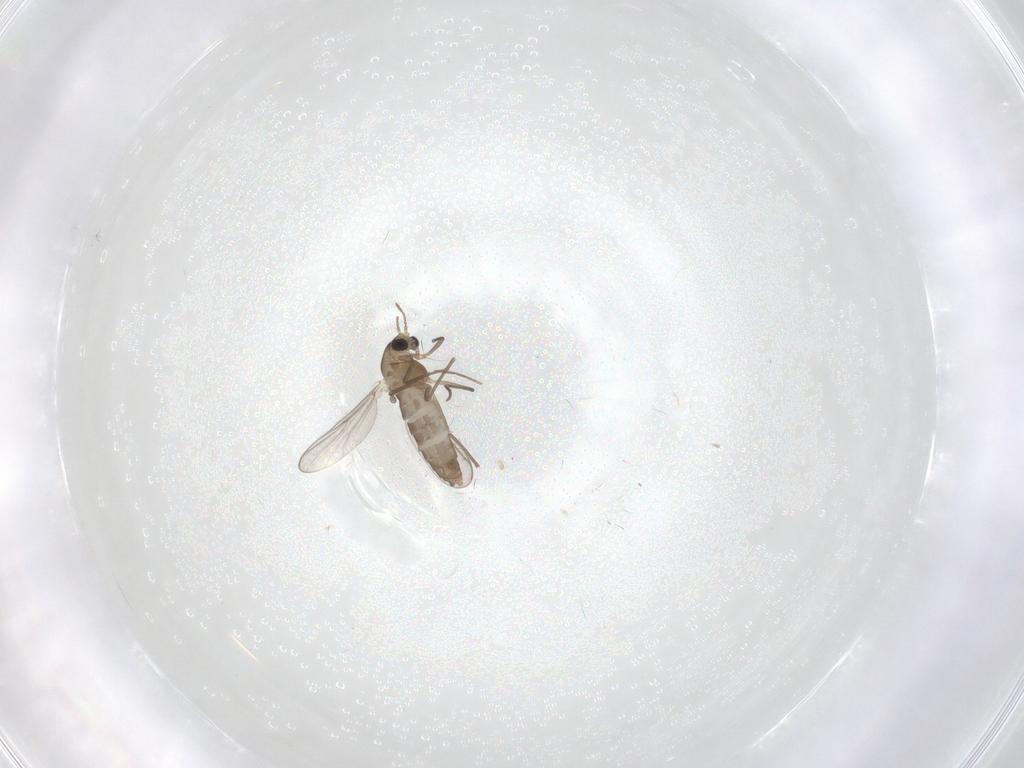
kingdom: Animalia
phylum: Arthropoda
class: Insecta
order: Diptera
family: Chironomidae
